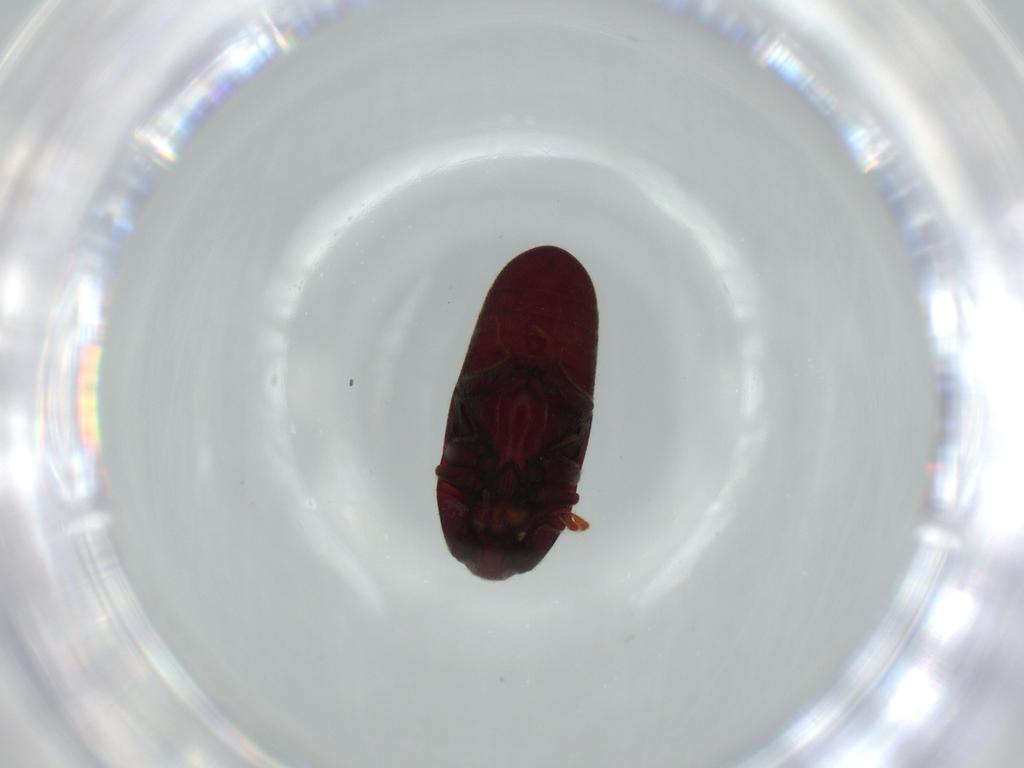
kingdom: Animalia
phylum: Arthropoda
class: Insecta
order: Coleoptera
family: Throscidae
